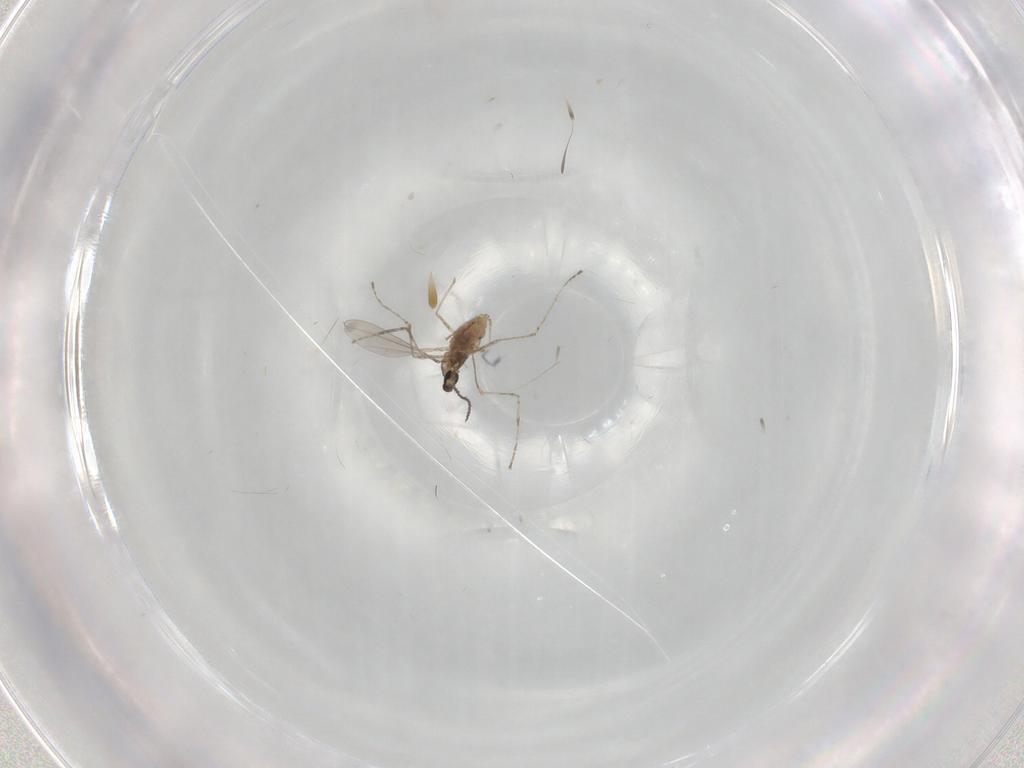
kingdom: Animalia
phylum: Arthropoda
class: Insecta
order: Diptera
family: Cecidomyiidae
